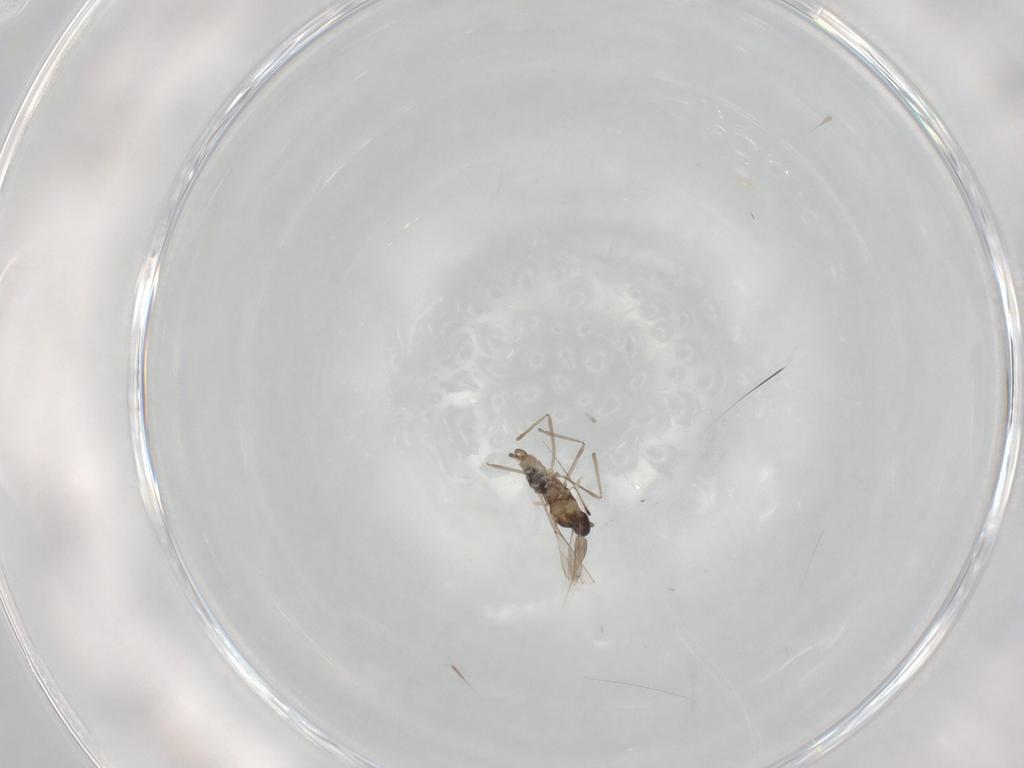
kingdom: Animalia
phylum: Arthropoda
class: Insecta
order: Diptera
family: Cecidomyiidae
